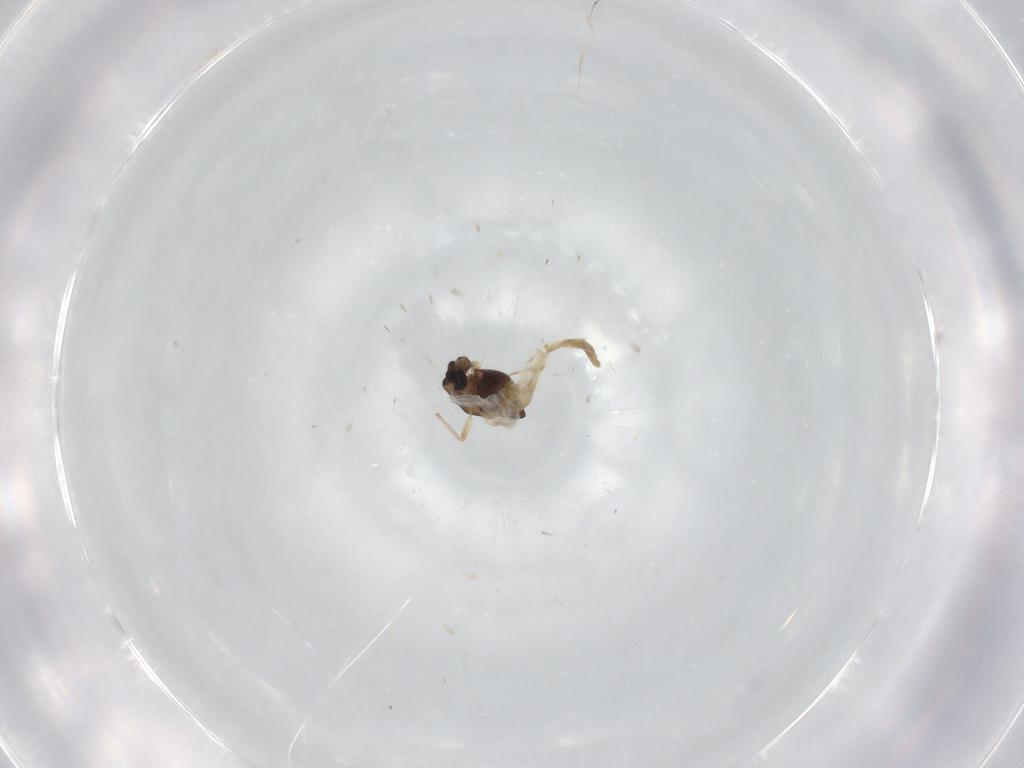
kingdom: Animalia
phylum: Arthropoda
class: Insecta
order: Diptera
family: Chironomidae
